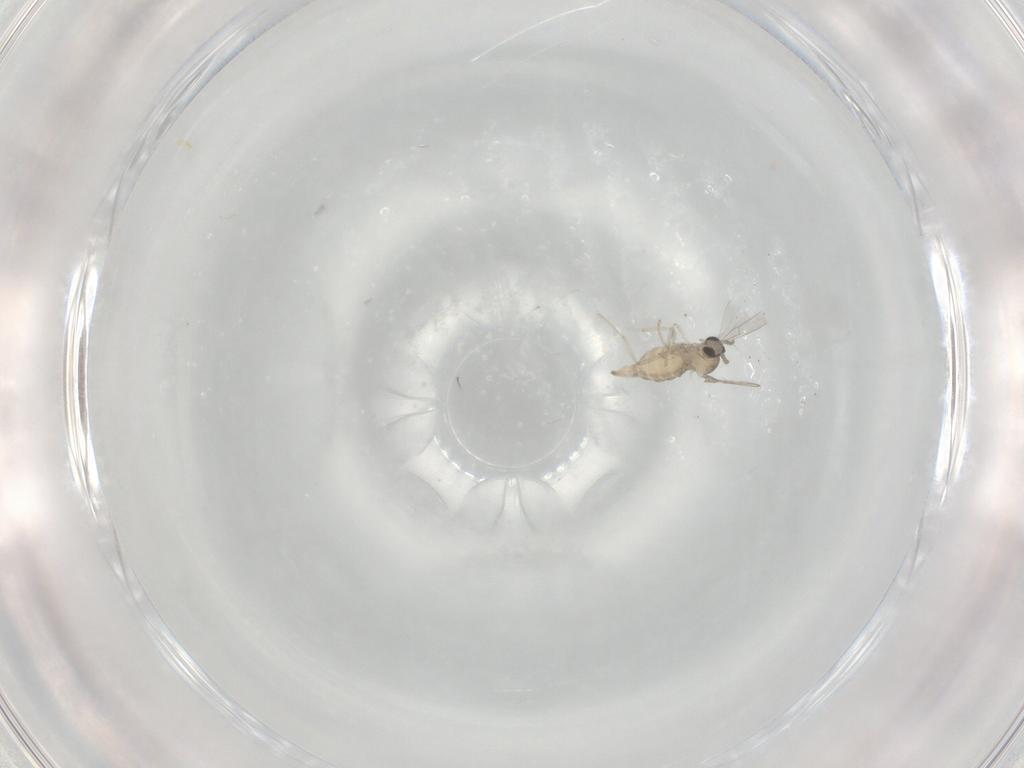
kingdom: Animalia
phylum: Arthropoda
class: Insecta
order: Diptera
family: Cecidomyiidae
